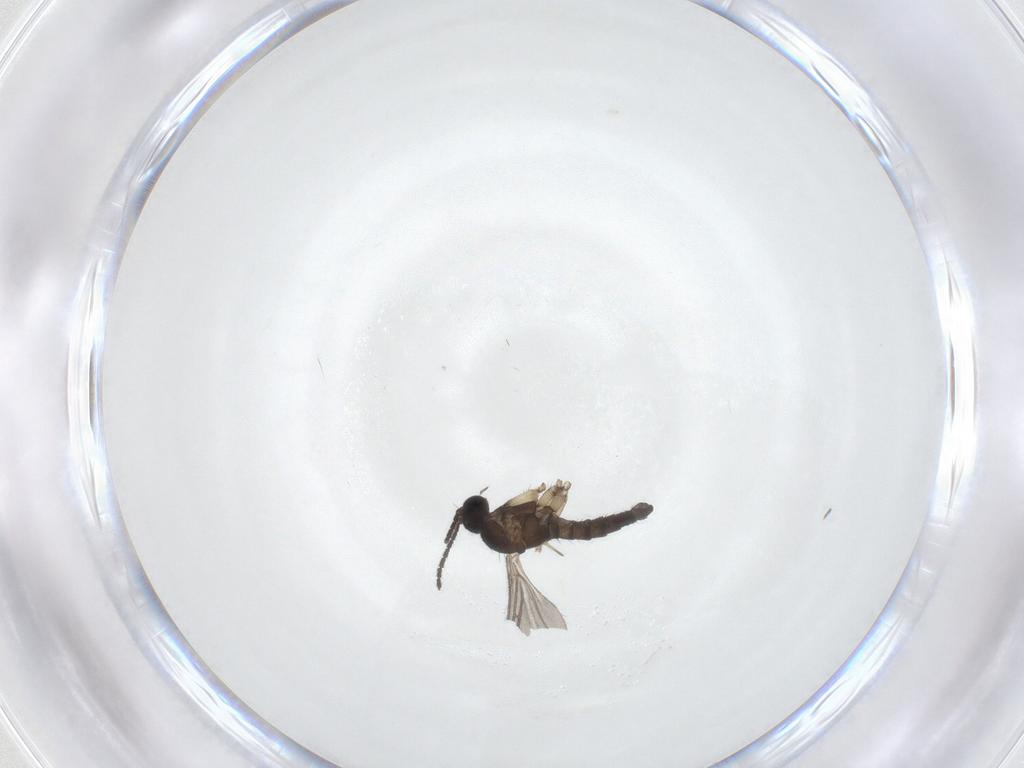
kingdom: Animalia
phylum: Arthropoda
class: Insecta
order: Diptera
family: Sciaridae
